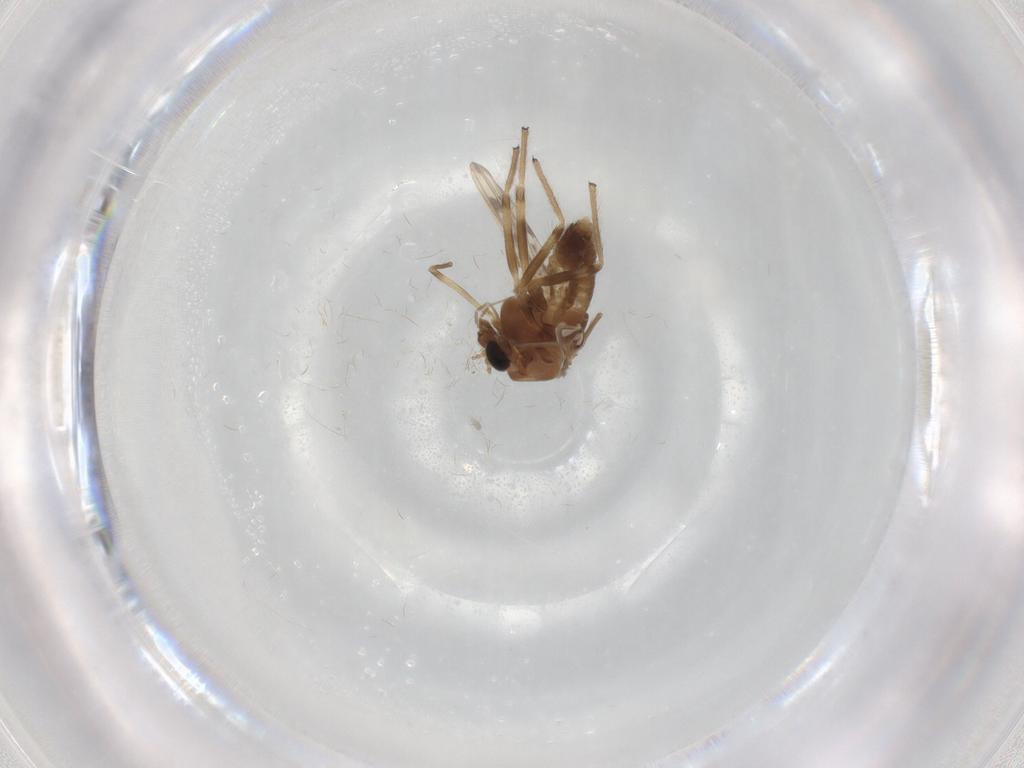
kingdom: Animalia
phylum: Arthropoda
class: Insecta
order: Diptera
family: Chironomidae
